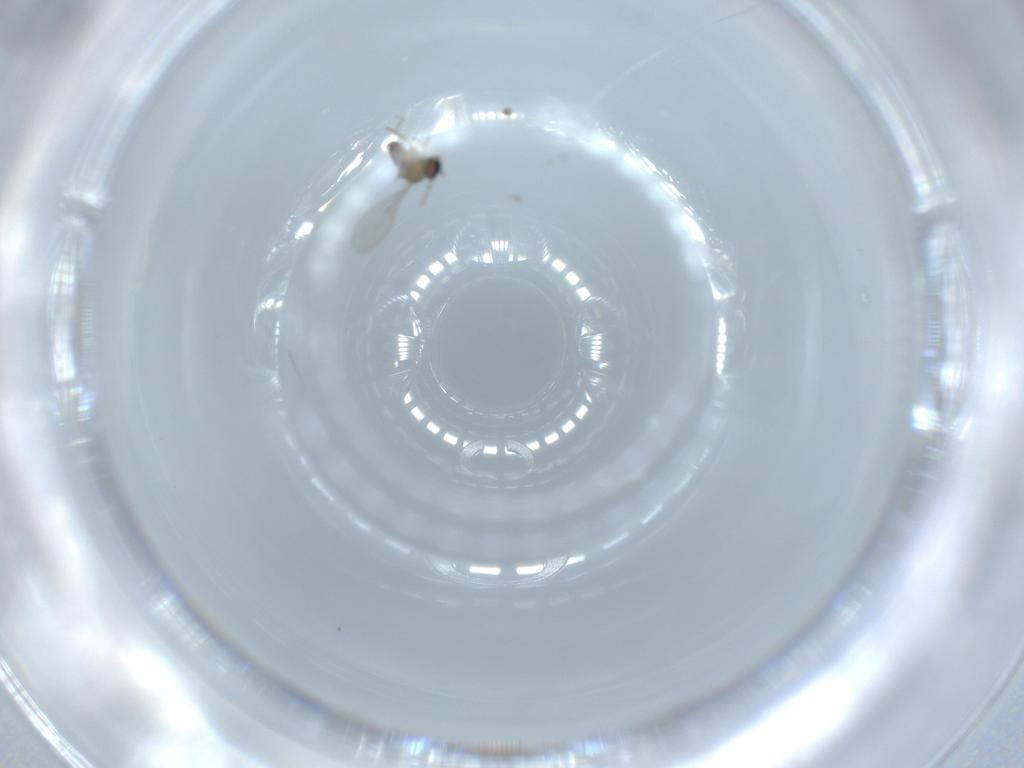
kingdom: Animalia
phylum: Arthropoda
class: Insecta
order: Diptera
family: Cecidomyiidae
